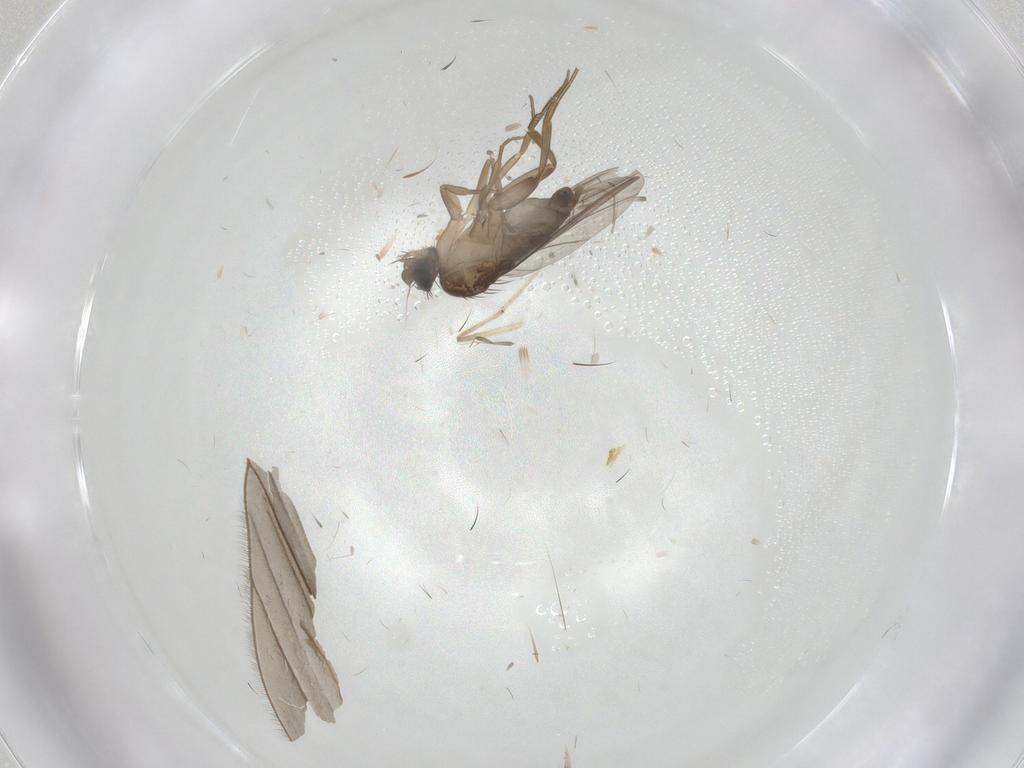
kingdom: Animalia
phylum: Arthropoda
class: Insecta
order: Diptera
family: Phoridae
